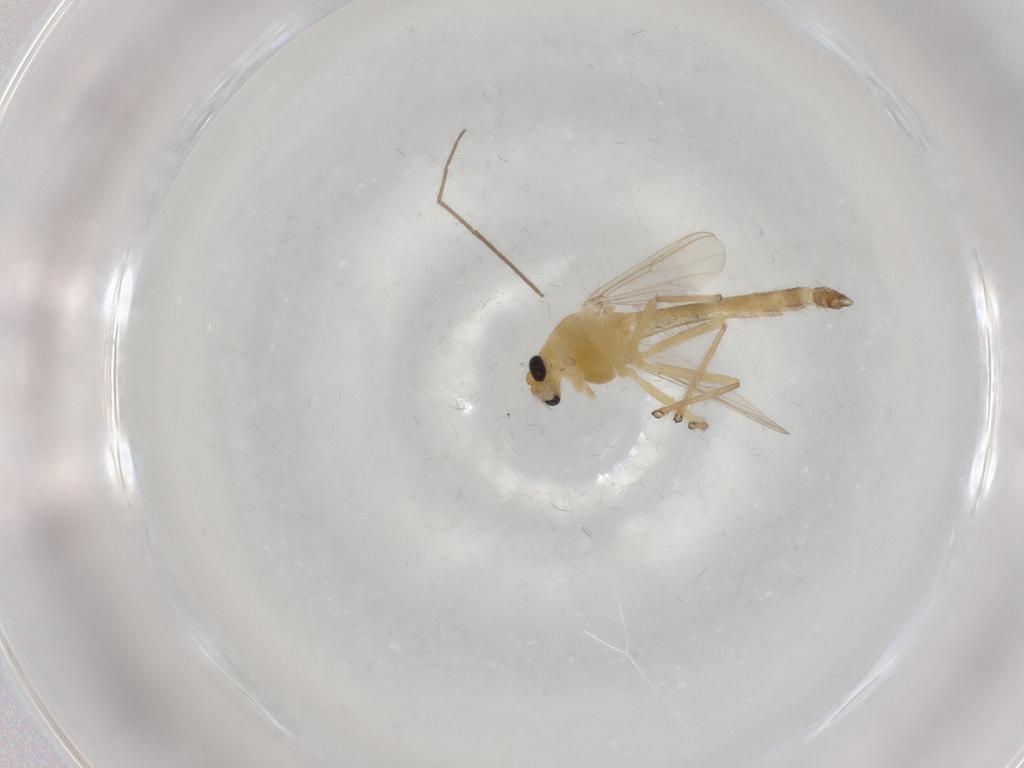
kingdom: Animalia
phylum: Arthropoda
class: Insecta
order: Diptera
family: Chironomidae
